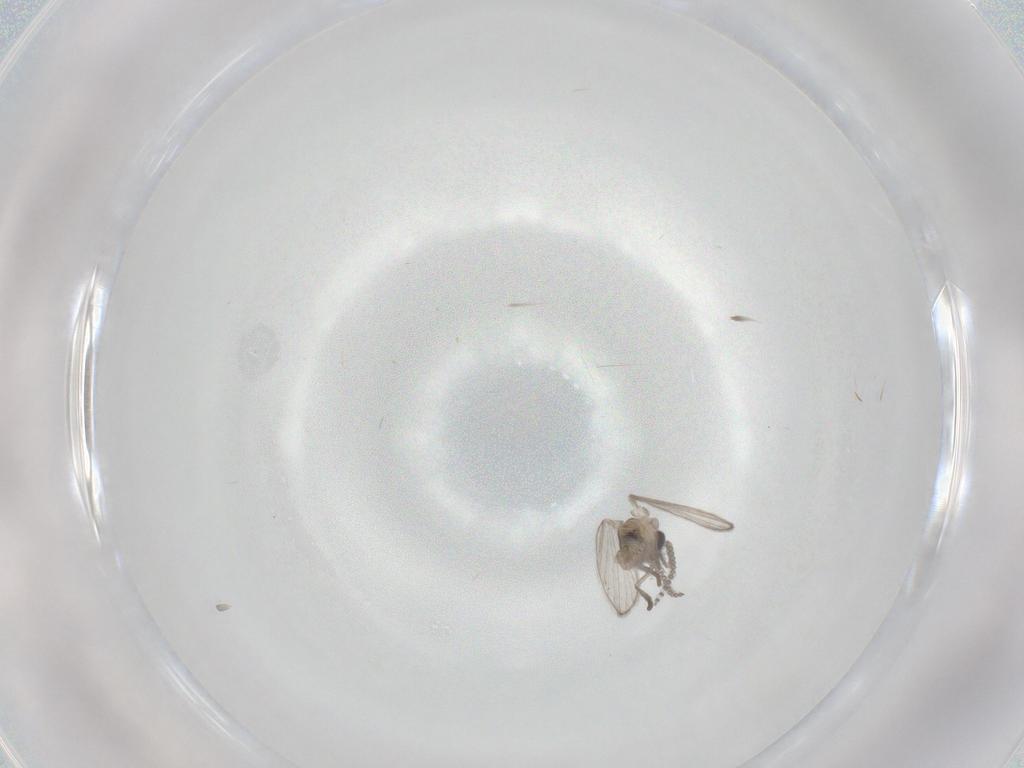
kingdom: Animalia
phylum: Arthropoda
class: Insecta
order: Diptera
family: Psychodidae
